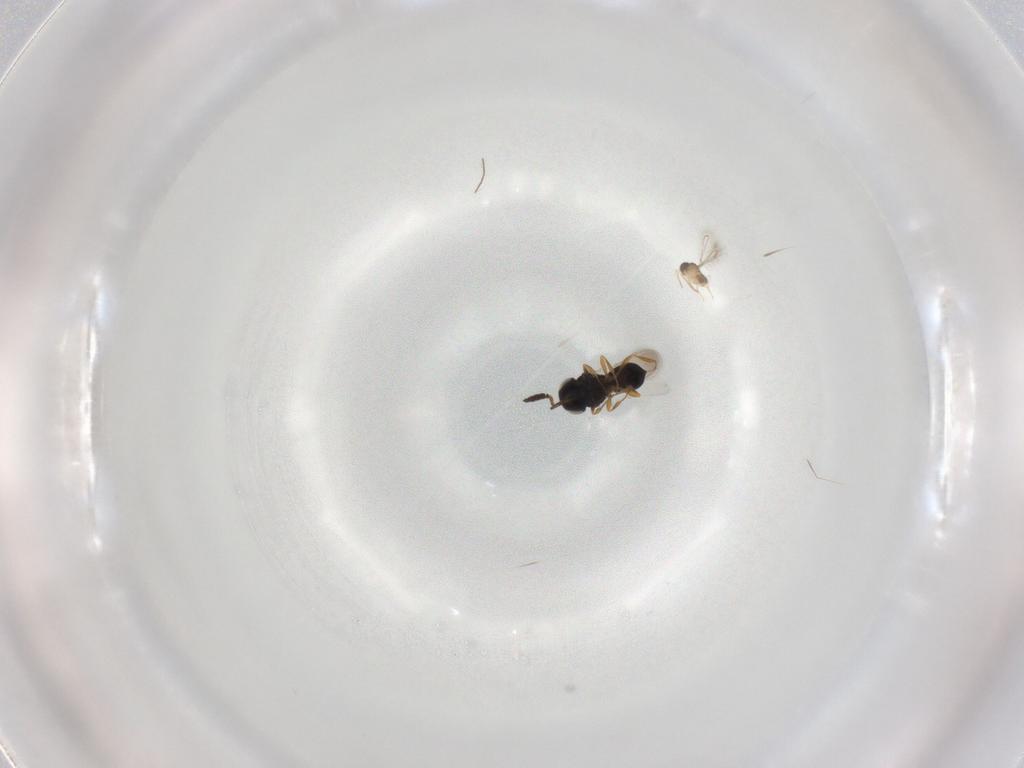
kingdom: Animalia
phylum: Arthropoda
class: Insecta
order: Hymenoptera
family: Scelionidae
